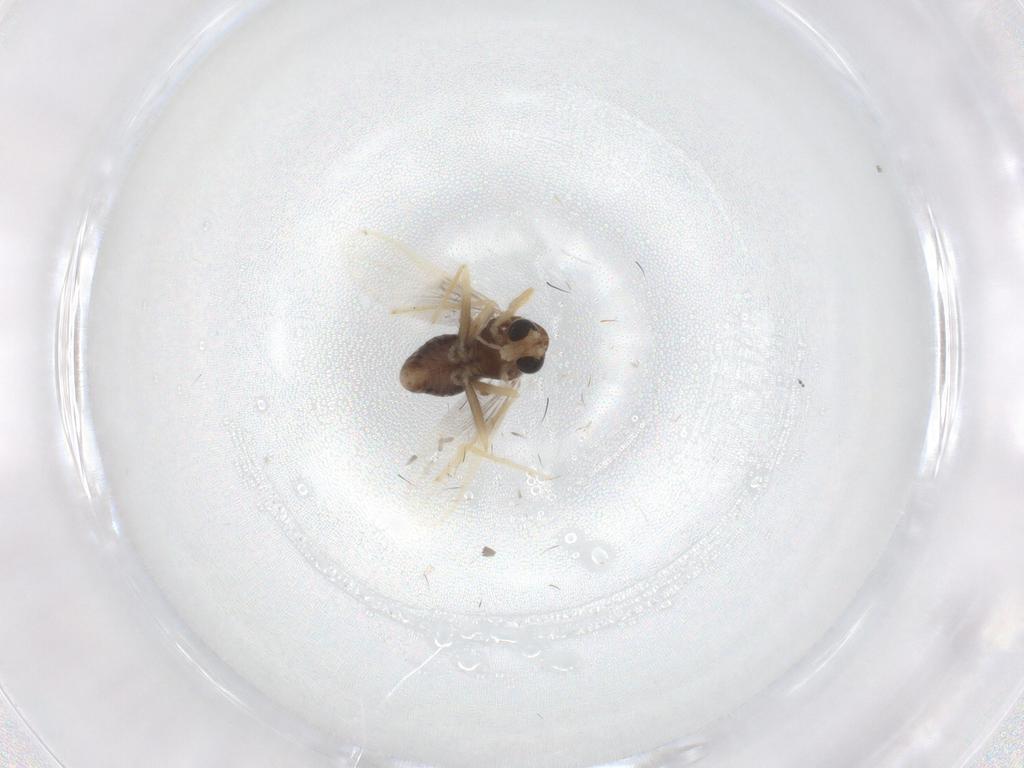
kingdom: Animalia
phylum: Arthropoda
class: Insecta
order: Diptera
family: Chironomidae
